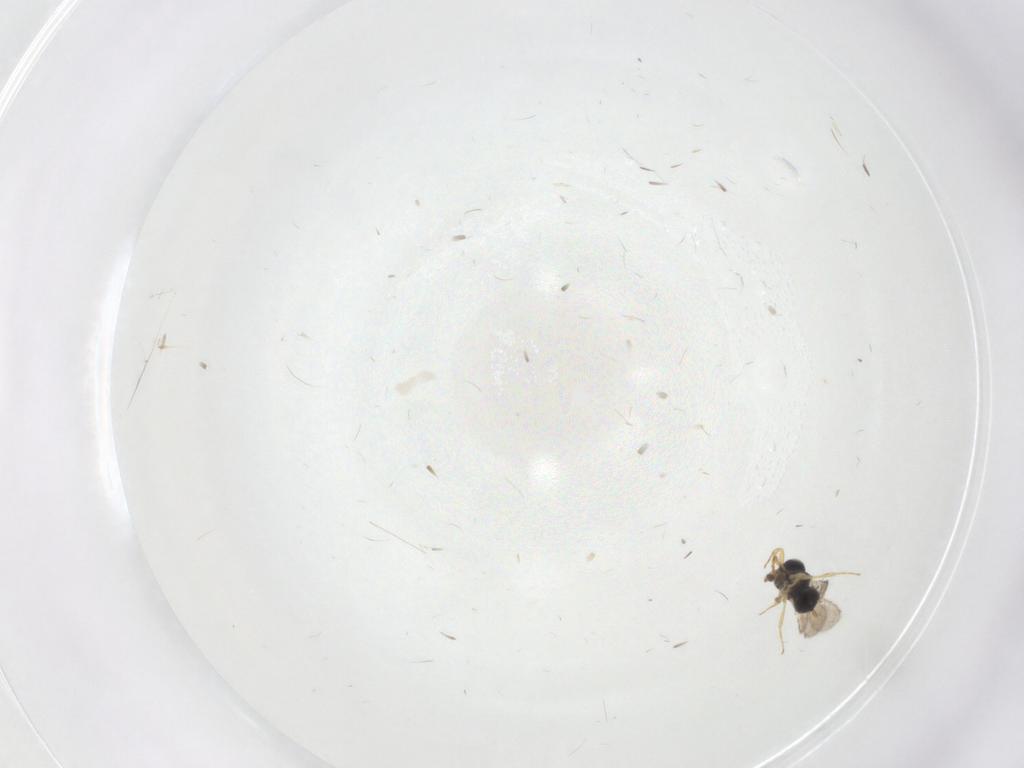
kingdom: Animalia
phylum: Arthropoda
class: Insecta
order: Hymenoptera
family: Scelionidae
